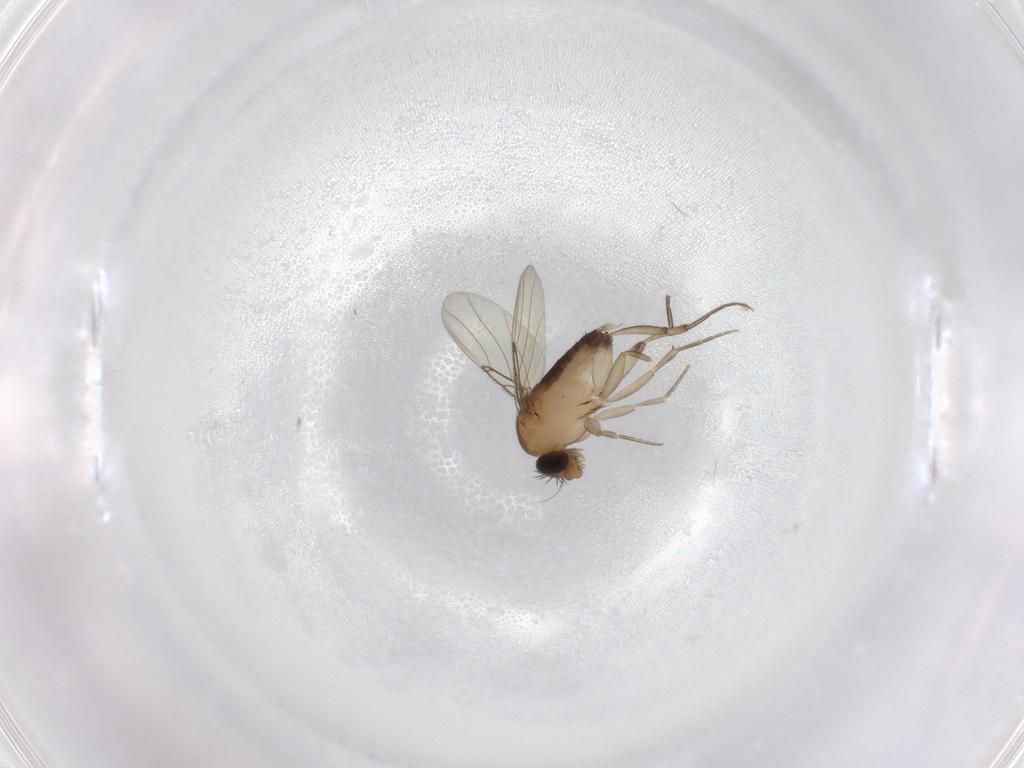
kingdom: Animalia
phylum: Arthropoda
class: Insecta
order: Diptera
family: Phoridae
